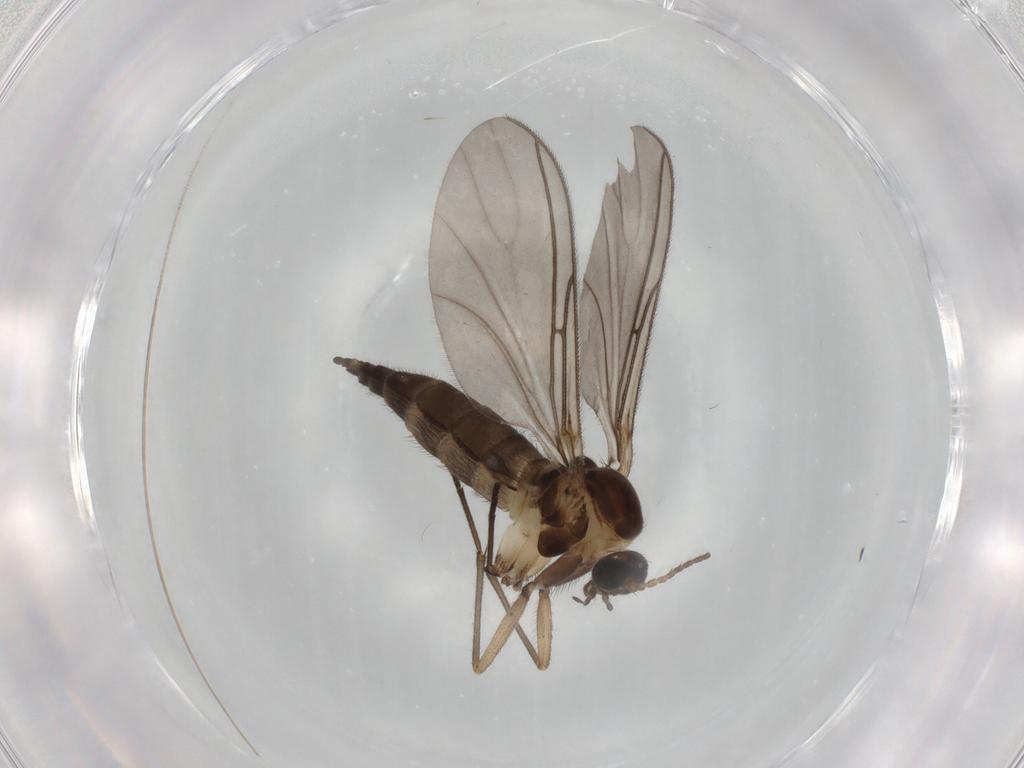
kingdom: Animalia
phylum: Arthropoda
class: Insecta
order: Diptera
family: Sciaridae
